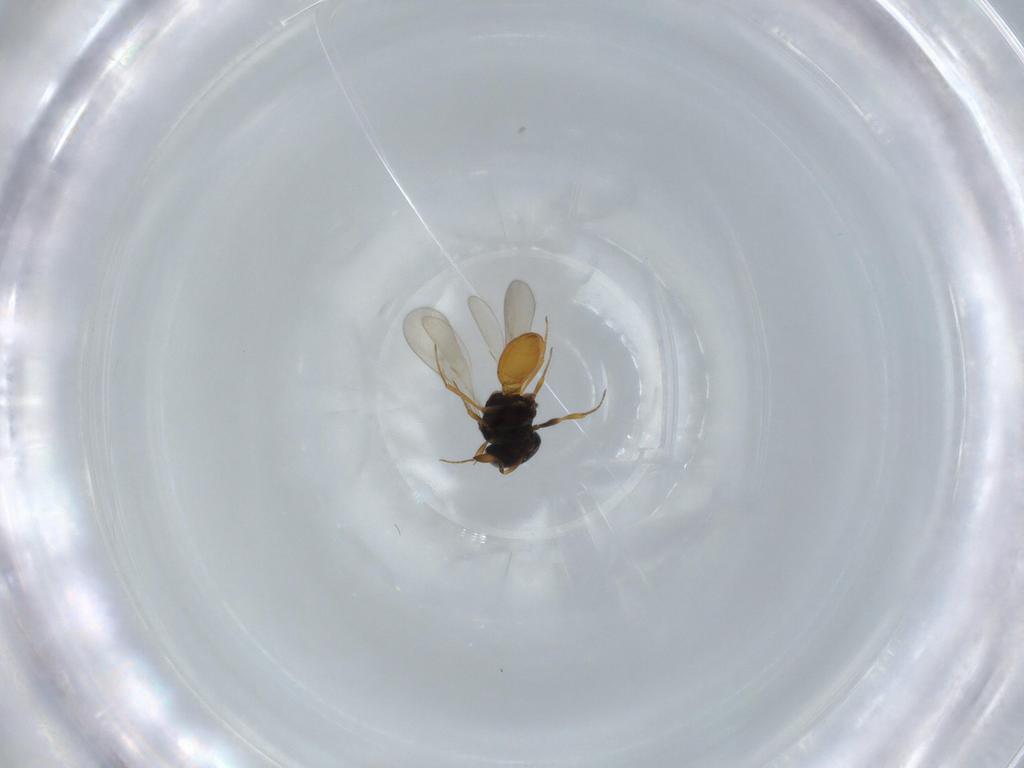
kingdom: Animalia
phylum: Arthropoda
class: Insecta
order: Hymenoptera
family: Scelionidae
